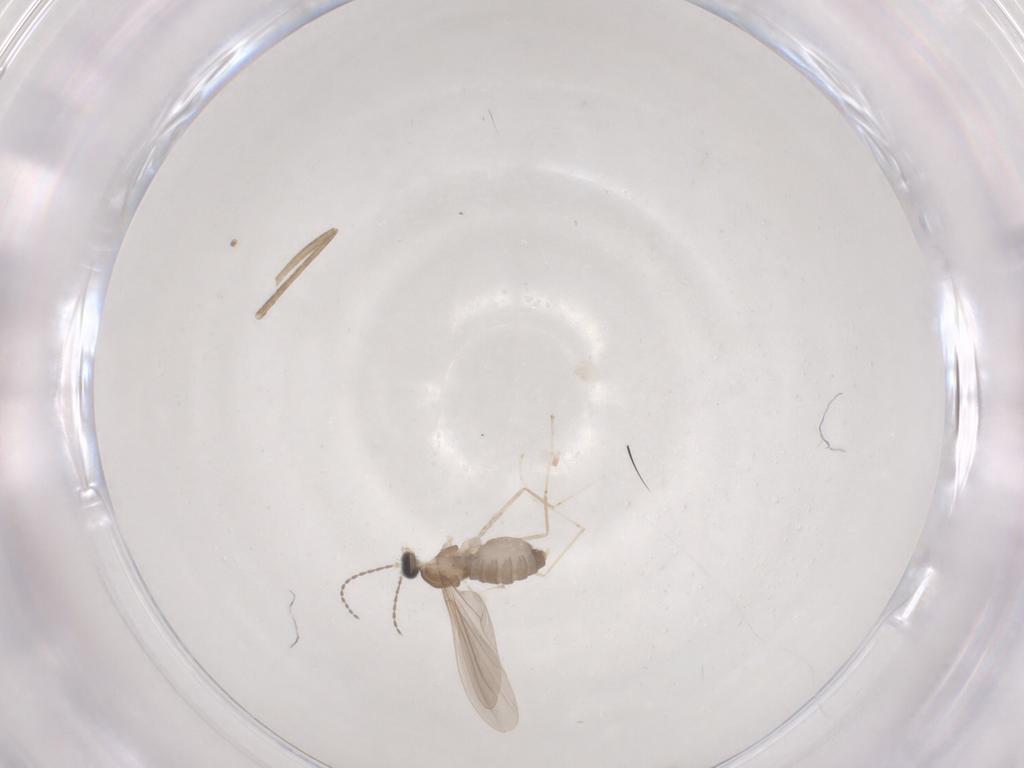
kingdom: Animalia
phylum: Arthropoda
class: Insecta
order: Diptera
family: Cecidomyiidae
